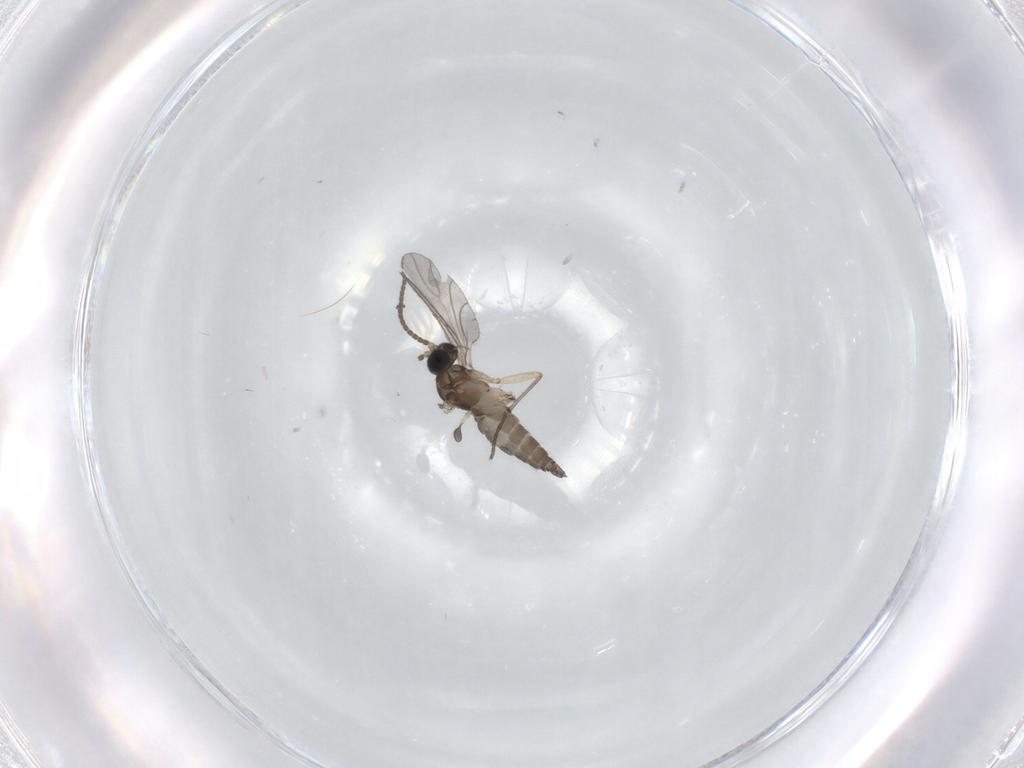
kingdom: Animalia
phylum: Arthropoda
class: Insecta
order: Diptera
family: Sciaridae
